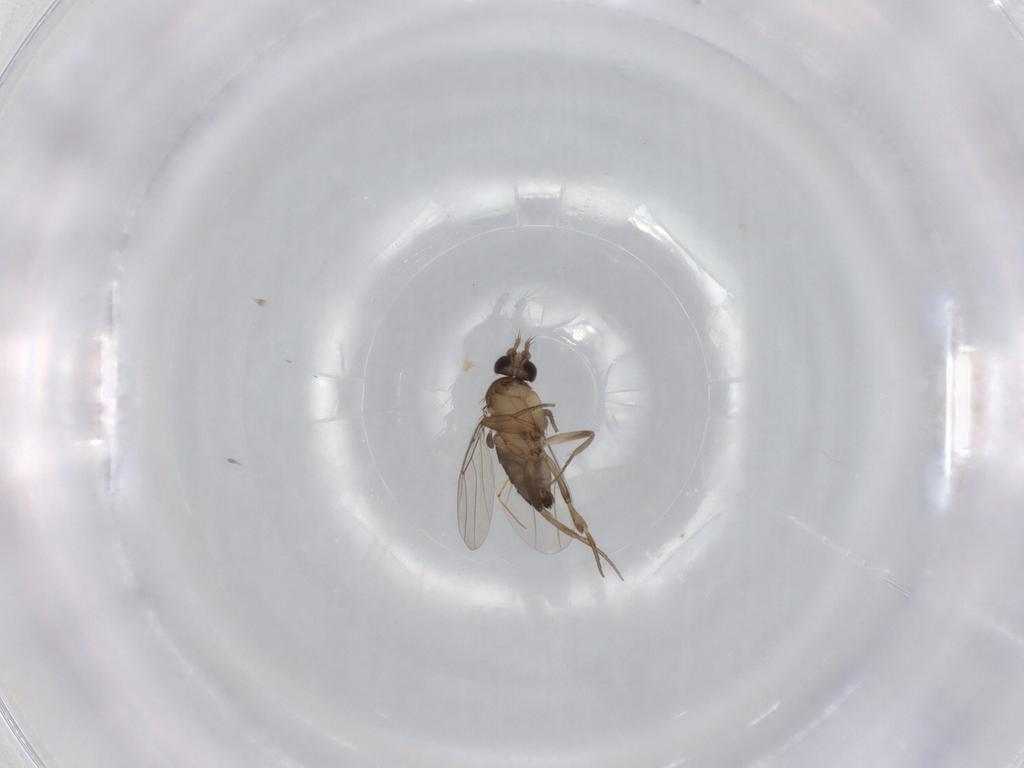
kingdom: Animalia
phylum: Arthropoda
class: Insecta
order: Diptera
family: Phoridae
